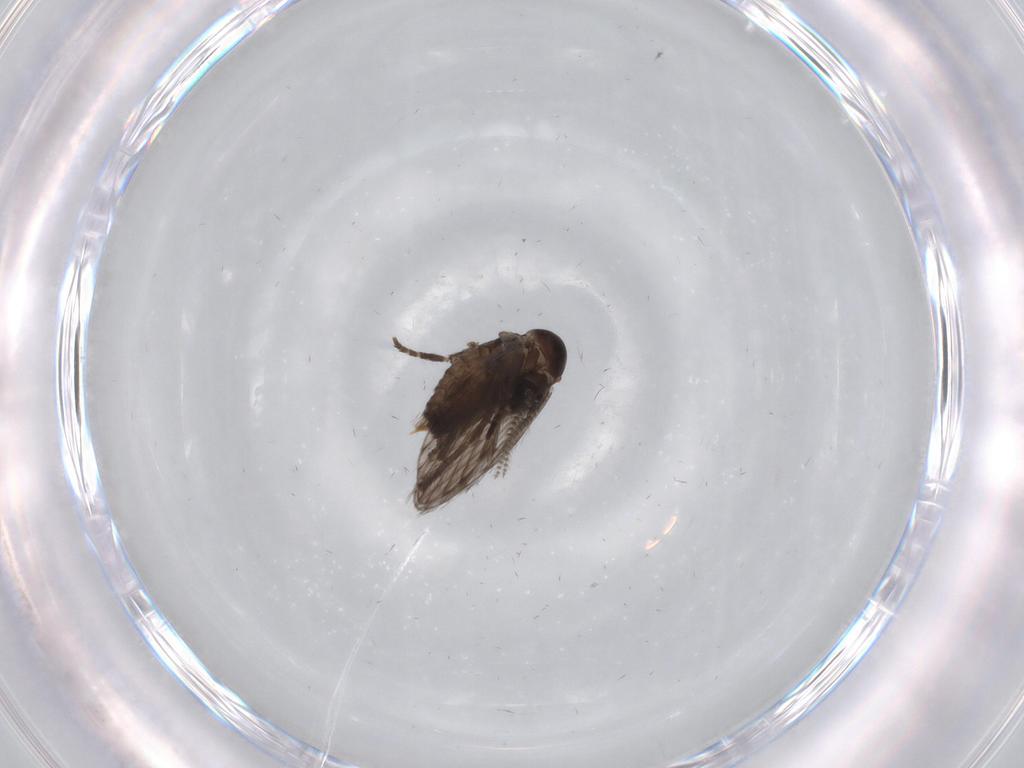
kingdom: Animalia
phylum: Arthropoda
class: Insecta
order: Diptera
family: Psychodidae
